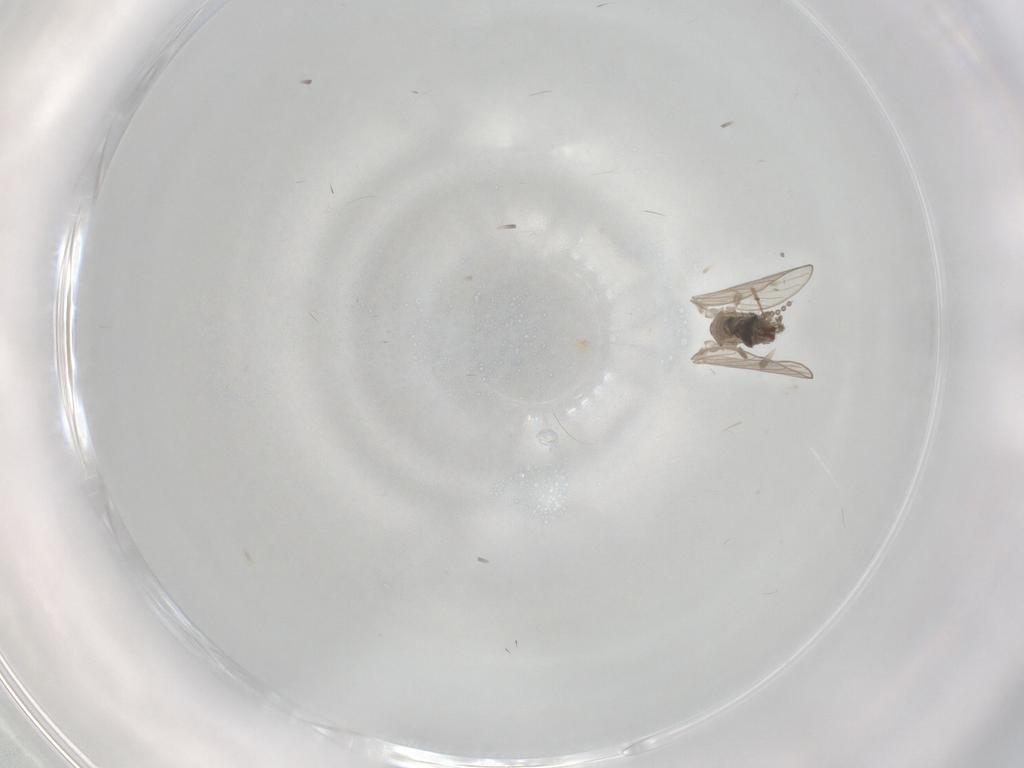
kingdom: Animalia
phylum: Arthropoda
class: Insecta
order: Diptera
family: Psychodidae
